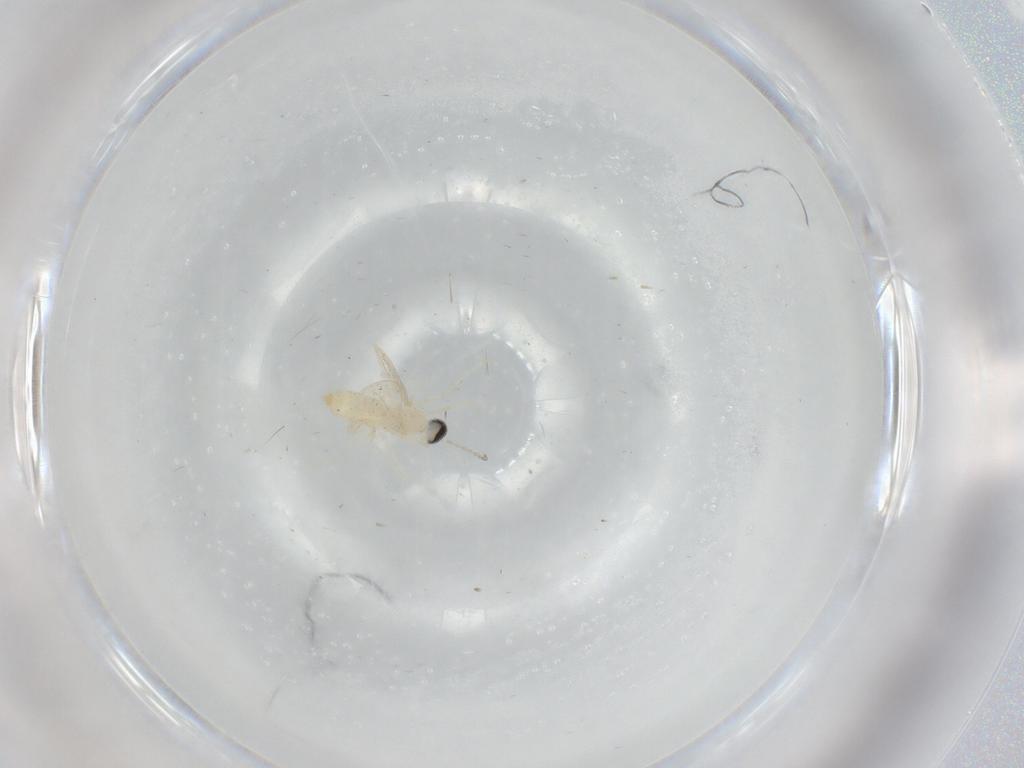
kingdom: Animalia
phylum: Arthropoda
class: Insecta
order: Diptera
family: Cecidomyiidae
